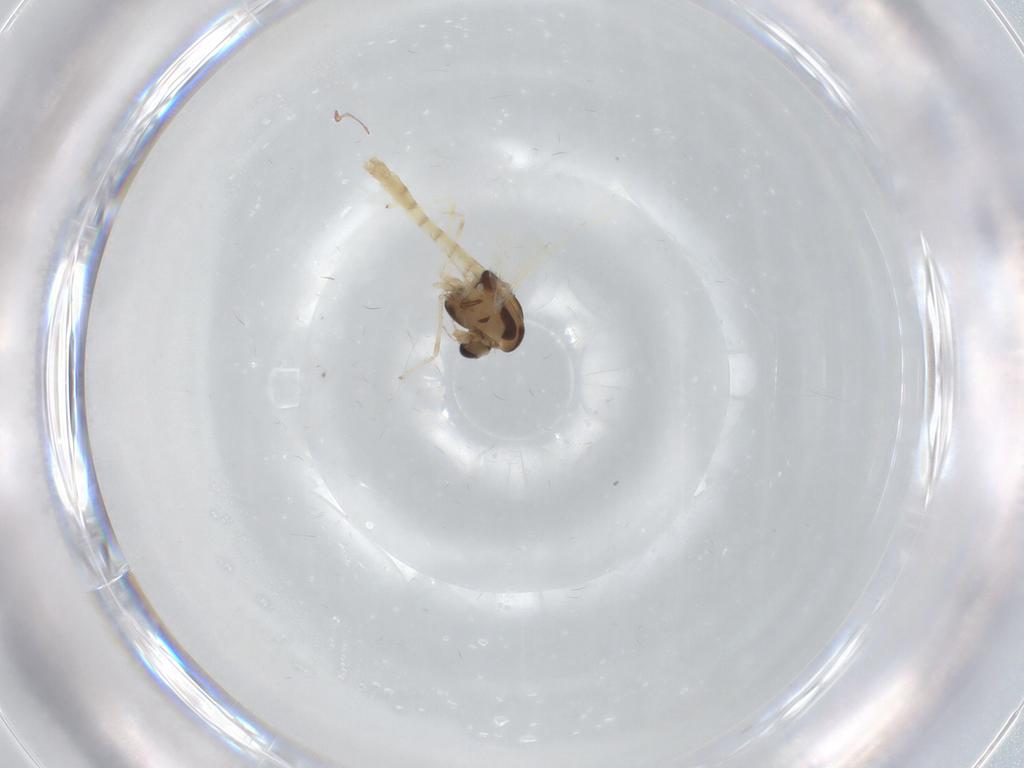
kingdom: Animalia
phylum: Arthropoda
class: Insecta
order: Diptera
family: Chironomidae
